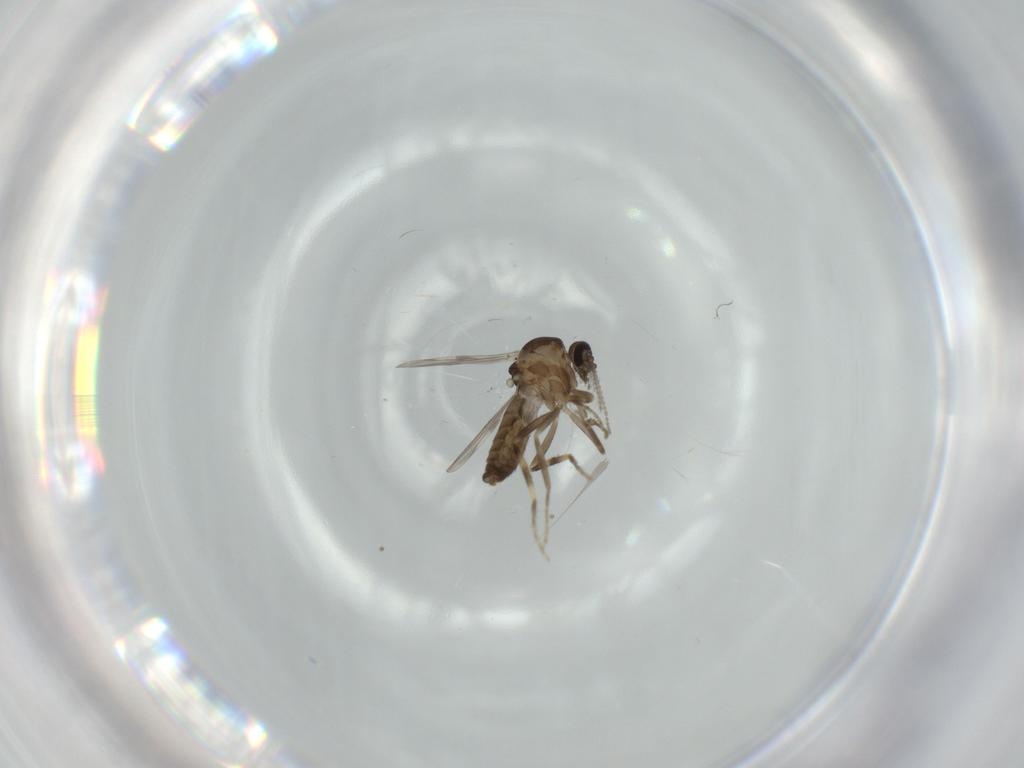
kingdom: Animalia
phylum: Arthropoda
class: Insecta
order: Diptera
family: Ceratopogonidae
